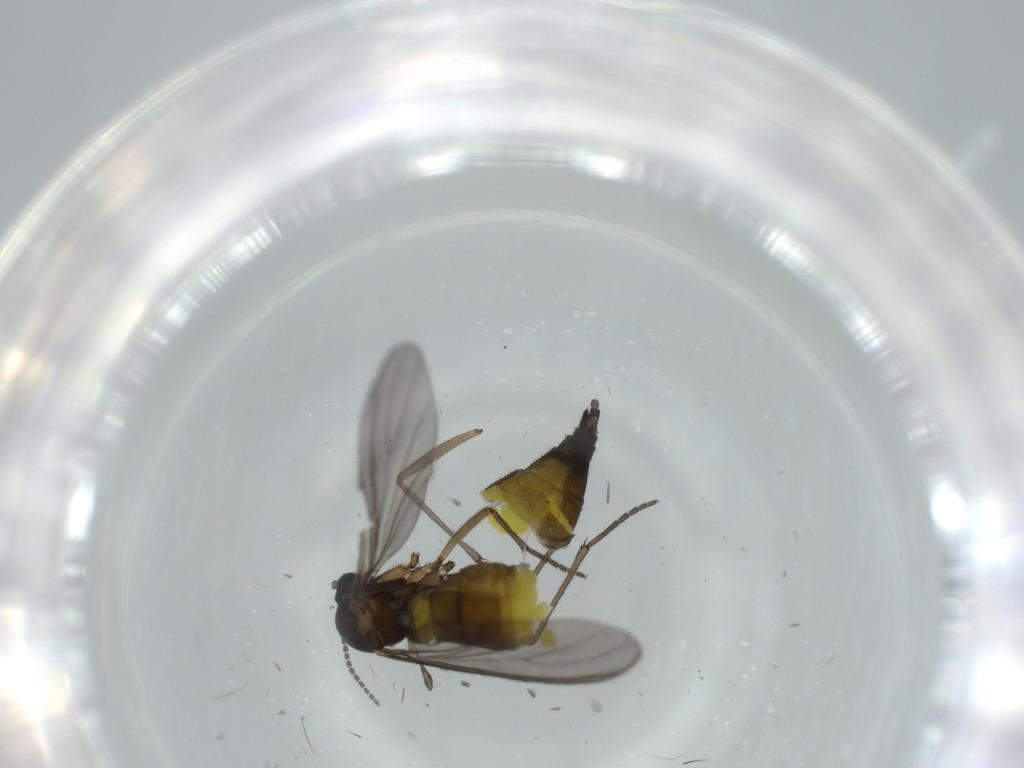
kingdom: Animalia
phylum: Arthropoda
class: Insecta
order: Diptera
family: Sciaridae
